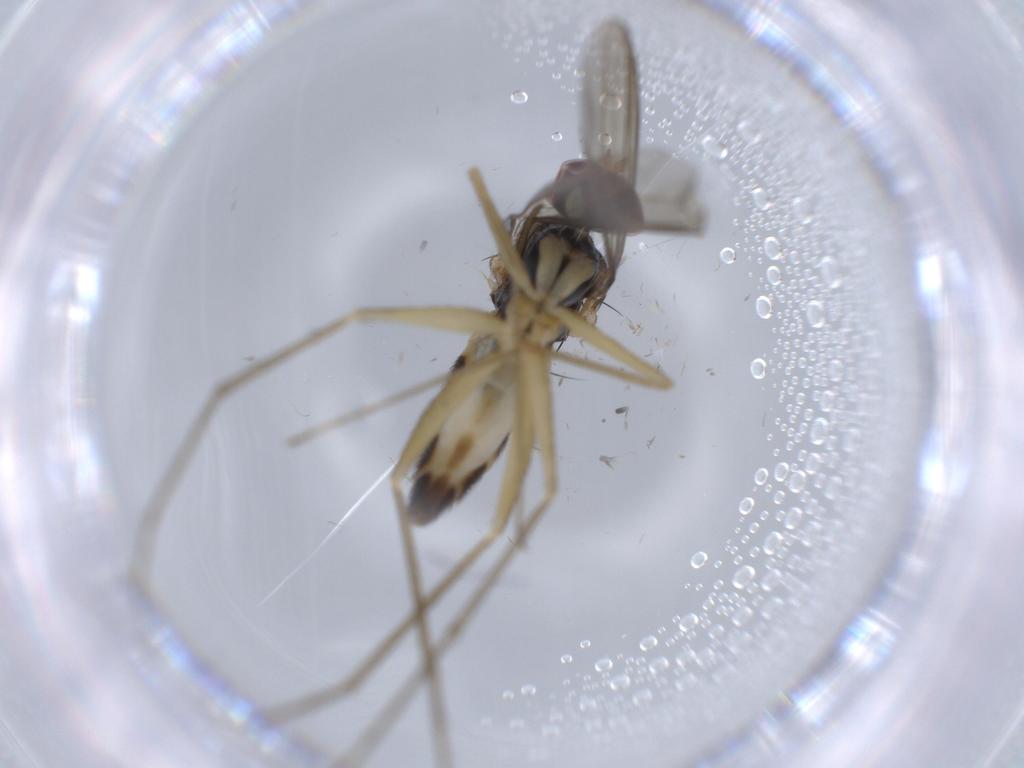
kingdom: Animalia
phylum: Arthropoda
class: Insecta
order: Diptera
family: Dolichopodidae
